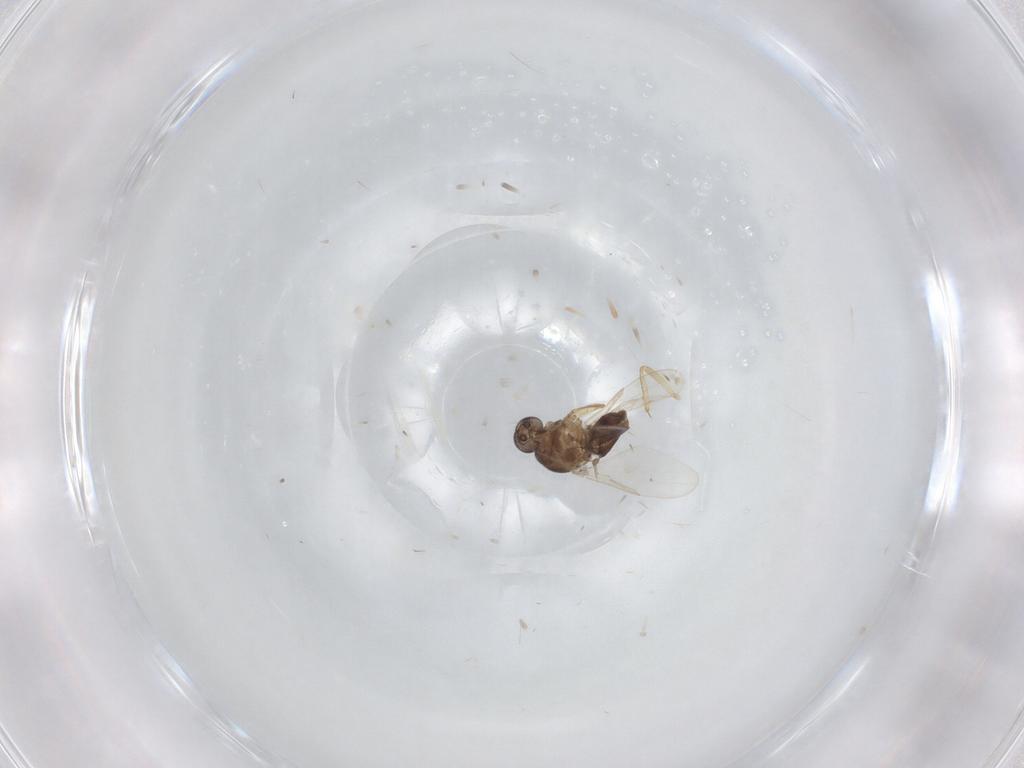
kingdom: Animalia
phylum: Arthropoda
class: Insecta
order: Diptera
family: Ceratopogonidae
